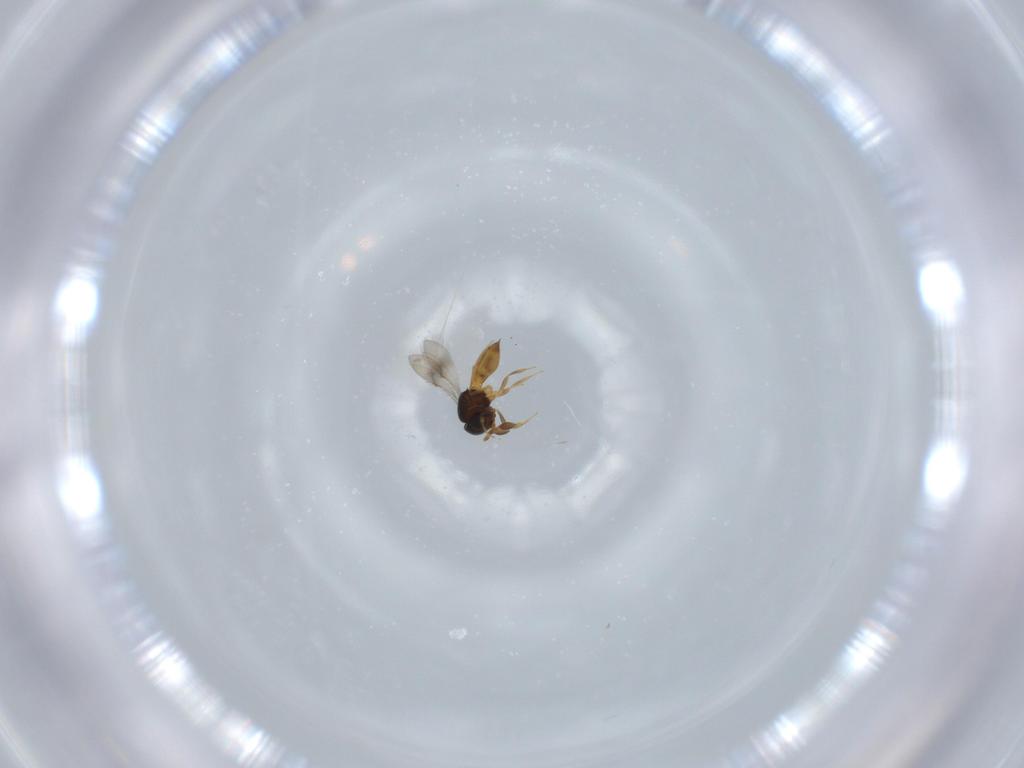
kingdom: Animalia
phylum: Arthropoda
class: Insecta
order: Hymenoptera
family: Scelionidae
